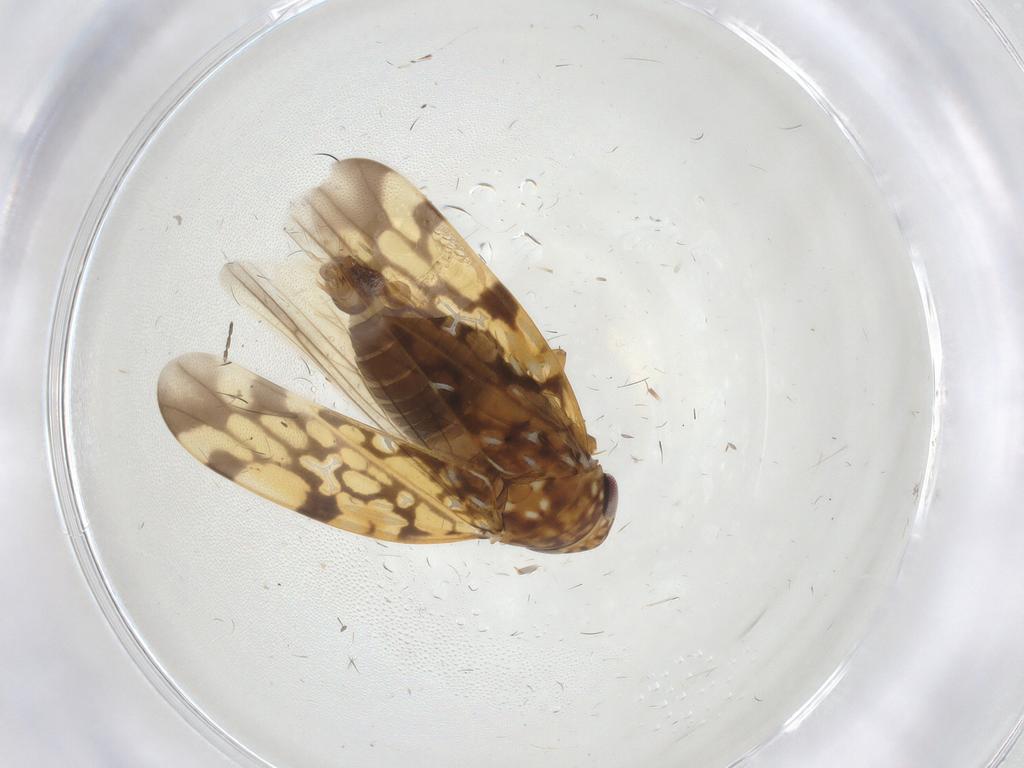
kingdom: Animalia
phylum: Arthropoda
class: Insecta
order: Hemiptera
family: Cicadellidae
